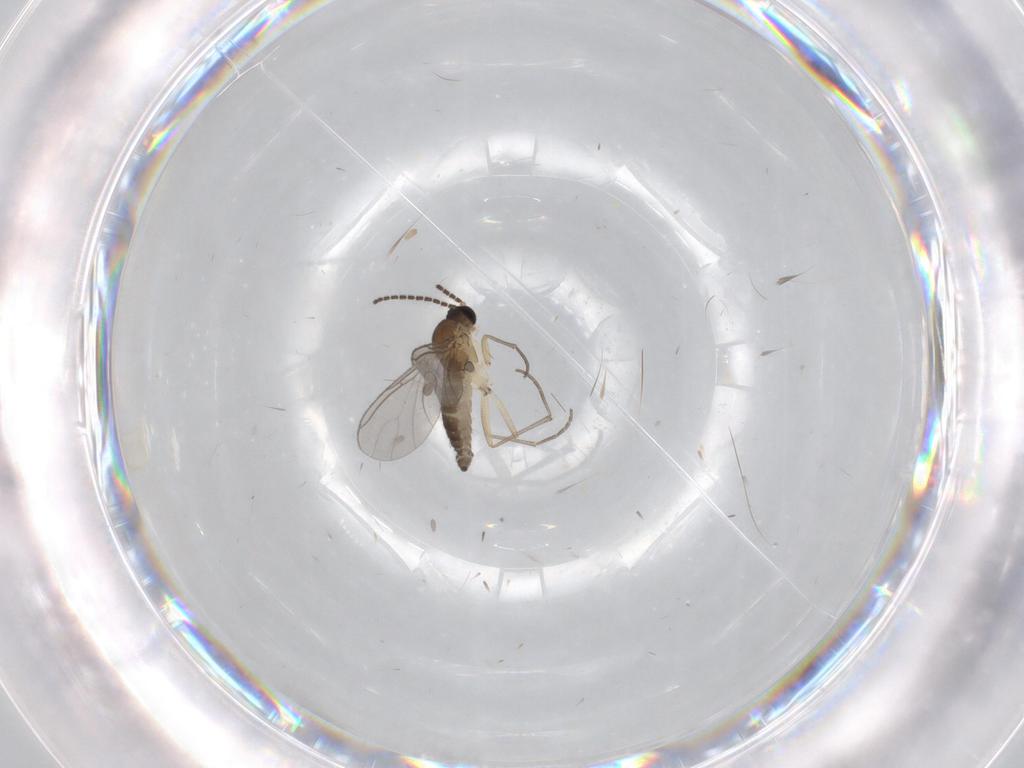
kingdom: Animalia
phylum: Arthropoda
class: Insecta
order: Diptera
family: Sciaridae
